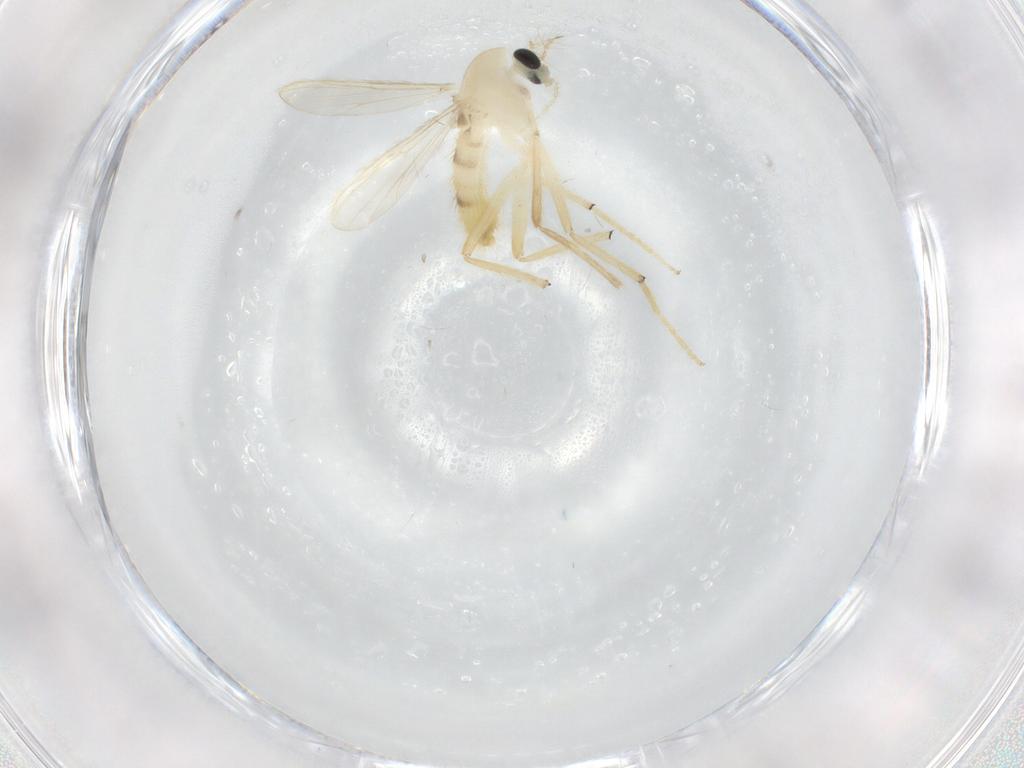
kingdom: Animalia
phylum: Arthropoda
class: Insecta
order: Diptera
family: Chironomidae
